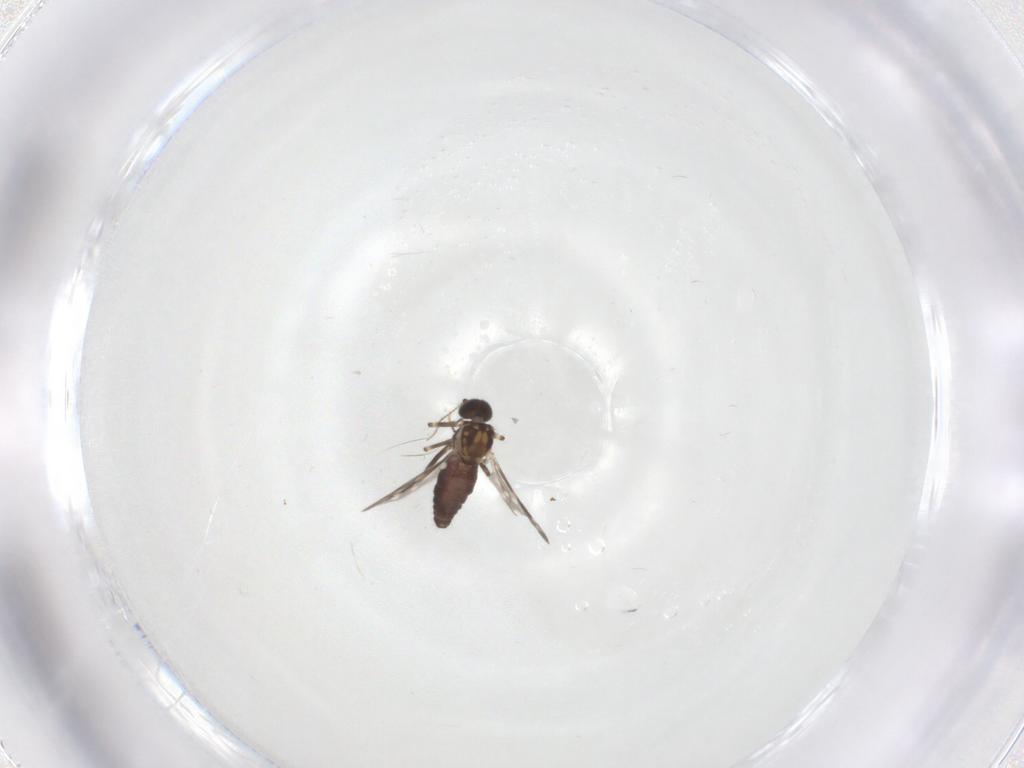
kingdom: Animalia
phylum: Arthropoda
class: Insecta
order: Diptera
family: Ceratopogonidae
